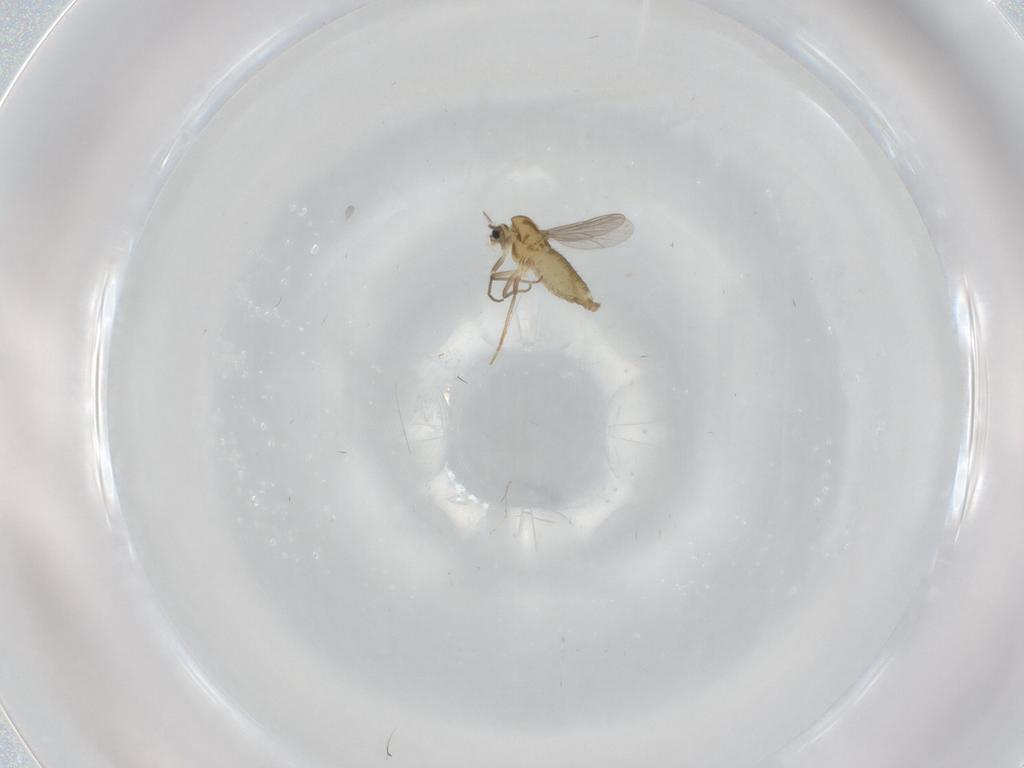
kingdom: Animalia
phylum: Arthropoda
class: Insecta
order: Diptera
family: Chironomidae
